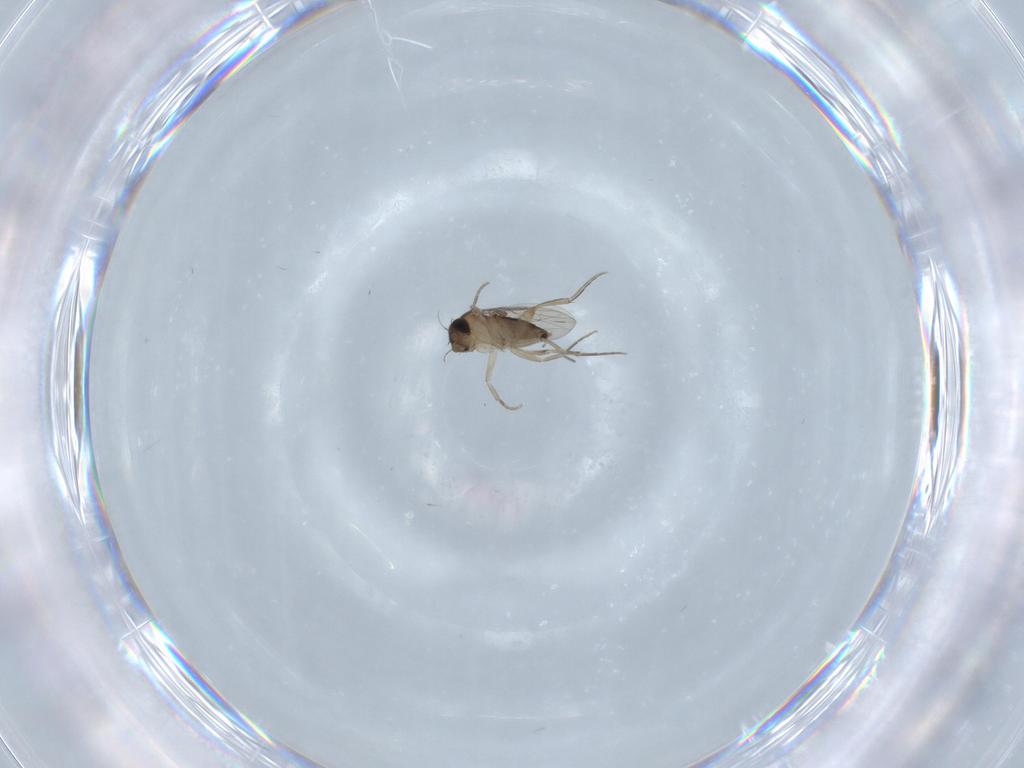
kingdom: Animalia
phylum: Arthropoda
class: Insecta
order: Diptera
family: Phoridae
